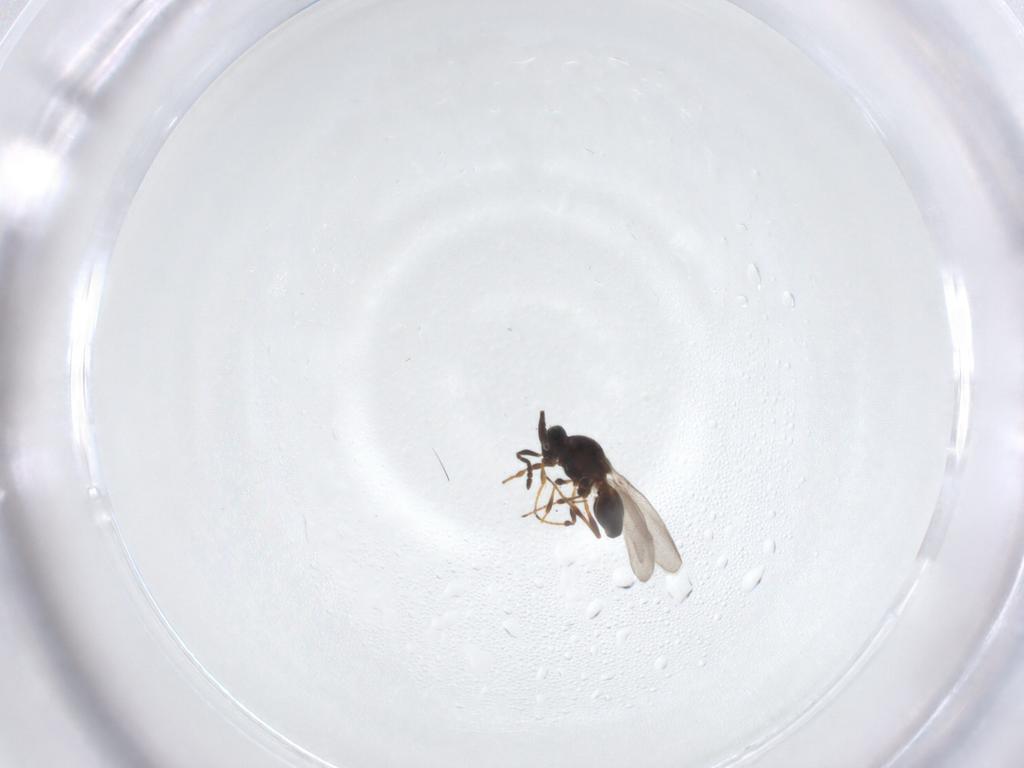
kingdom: Animalia
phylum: Arthropoda
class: Insecta
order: Hymenoptera
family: Platygastridae
